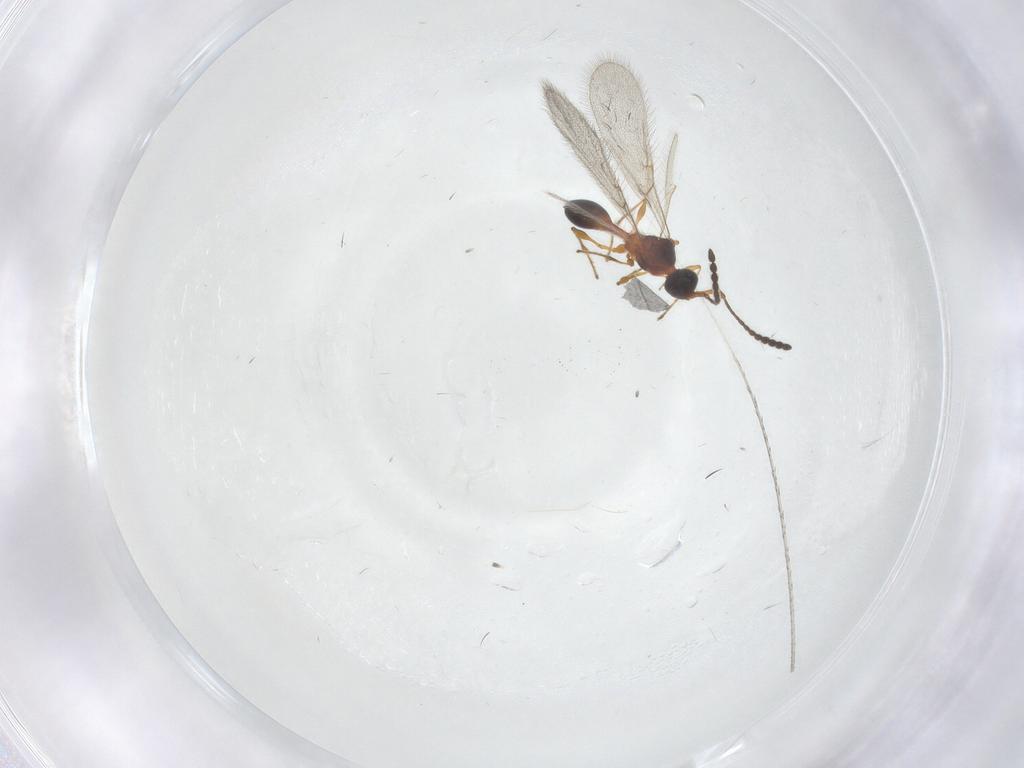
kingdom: Animalia
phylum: Arthropoda
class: Insecta
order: Hymenoptera
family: Diapriidae
